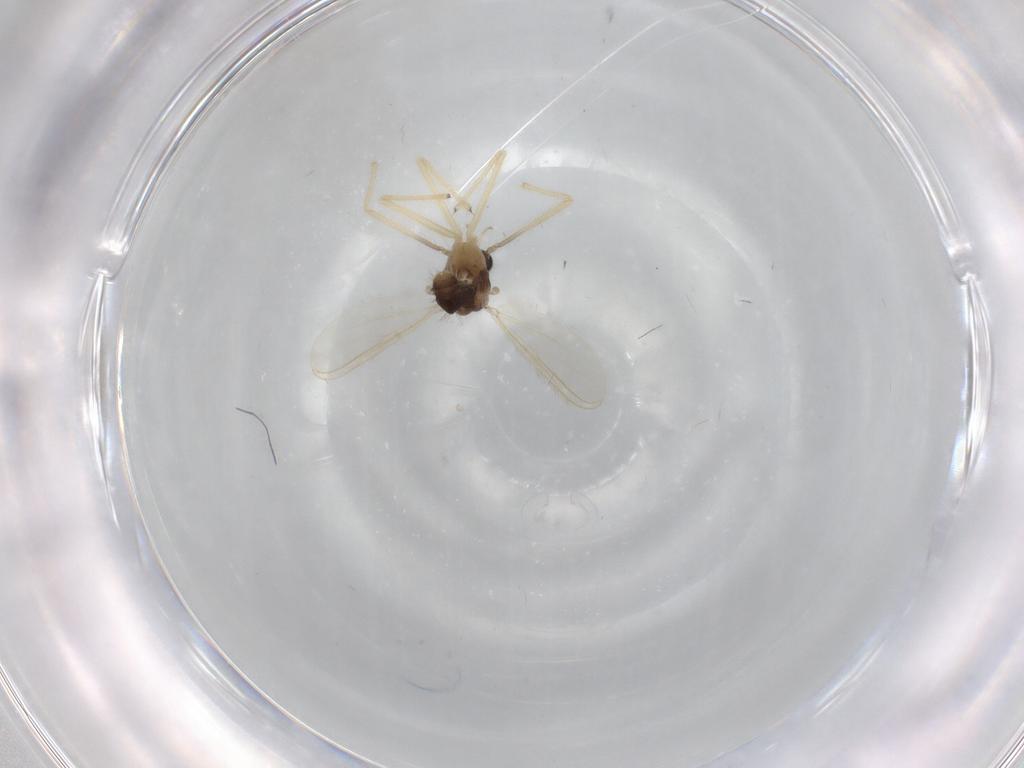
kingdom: Animalia
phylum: Arthropoda
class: Insecta
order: Diptera
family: Chironomidae
